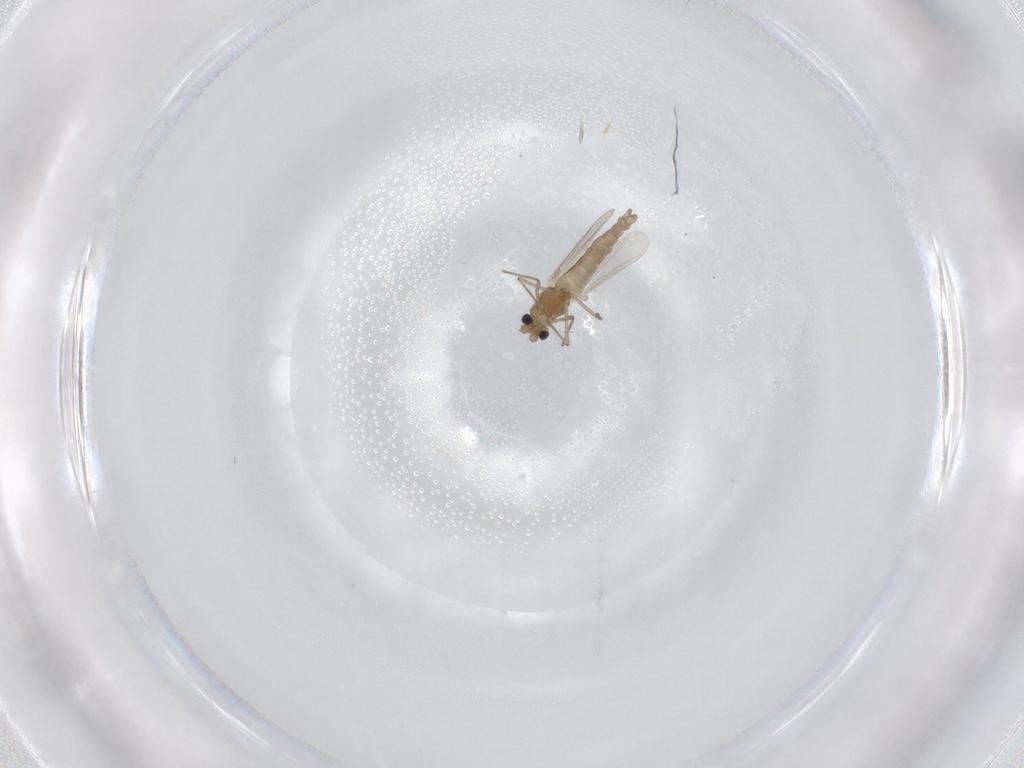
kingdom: Animalia
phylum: Arthropoda
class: Insecta
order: Diptera
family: Chironomidae
